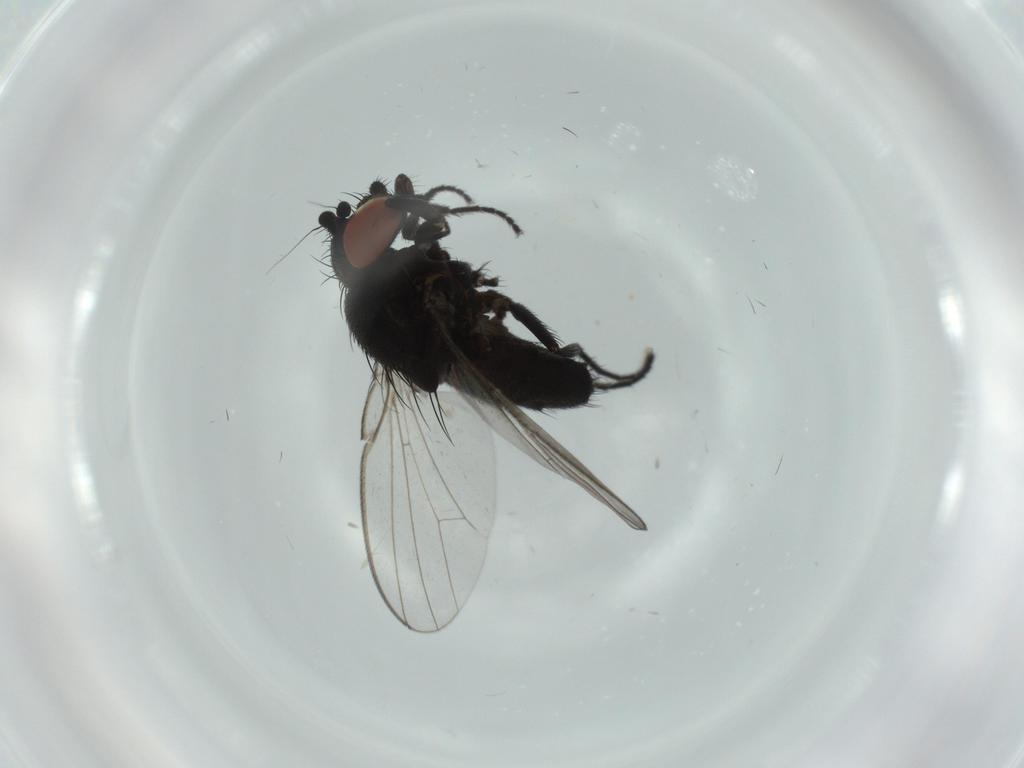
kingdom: Animalia
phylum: Arthropoda
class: Insecta
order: Diptera
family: Milichiidae
